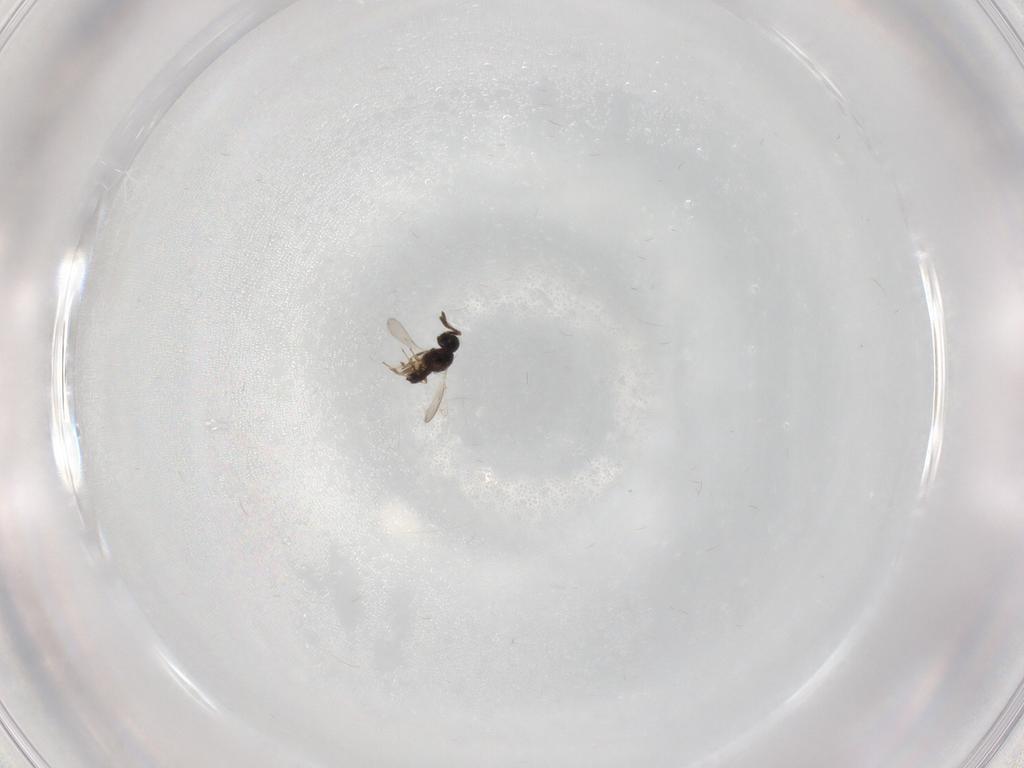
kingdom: Animalia
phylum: Arthropoda
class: Insecta
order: Hymenoptera
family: Scelionidae
